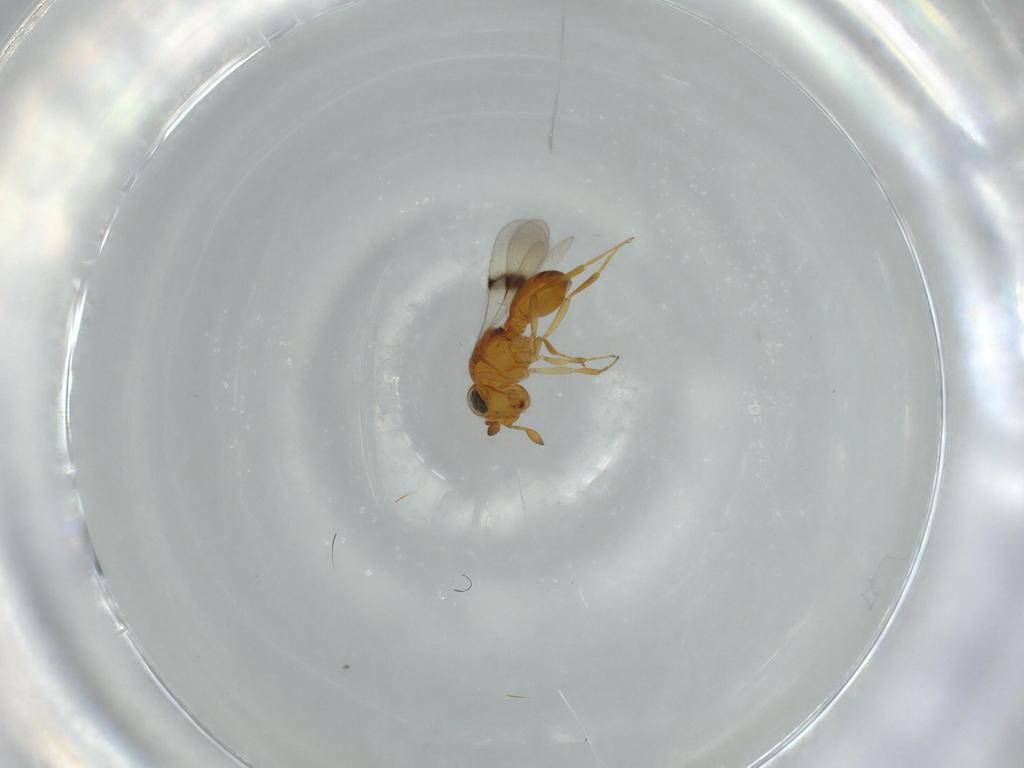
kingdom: Animalia
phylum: Arthropoda
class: Insecta
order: Hymenoptera
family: Scelionidae
